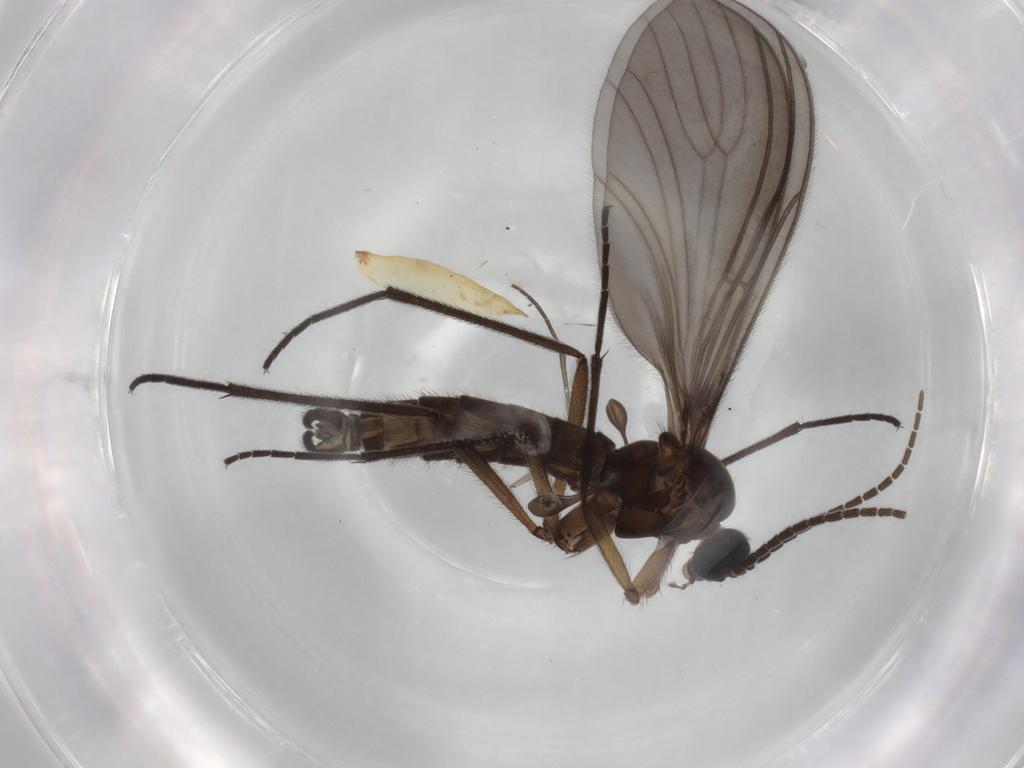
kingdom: Animalia
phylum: Arthropoda
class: Insecta
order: Diptera
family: Sciaridae
